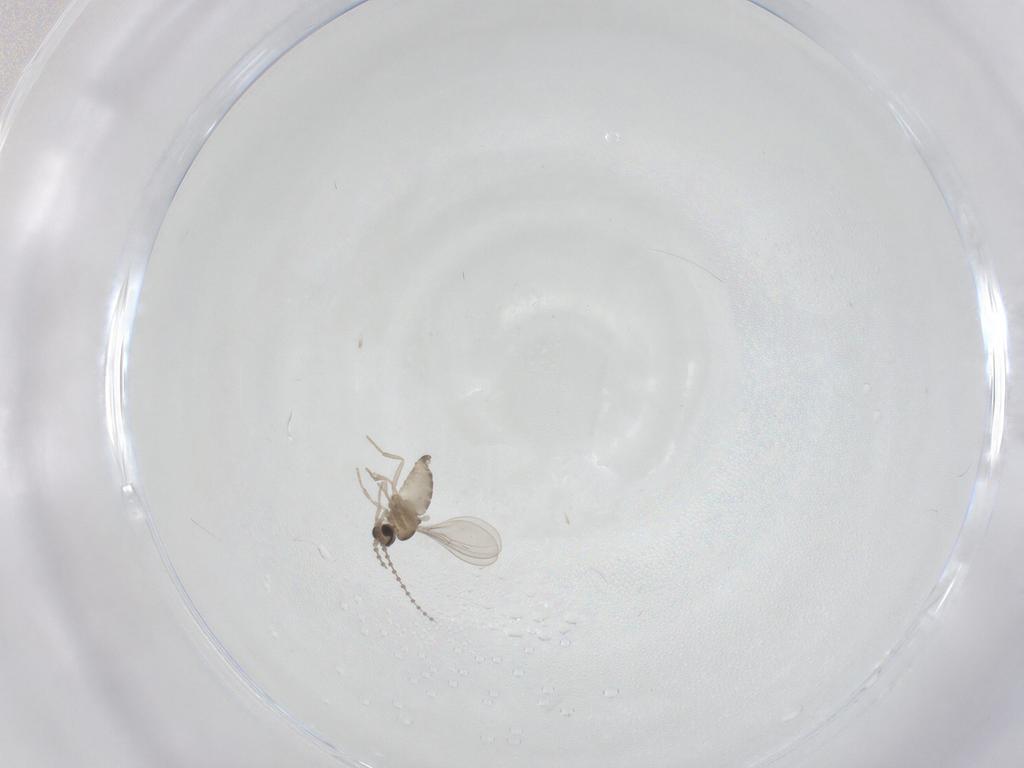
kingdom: Animalia
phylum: Arthropoda
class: Insecta
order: Diptera
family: Cecidomyiidae
